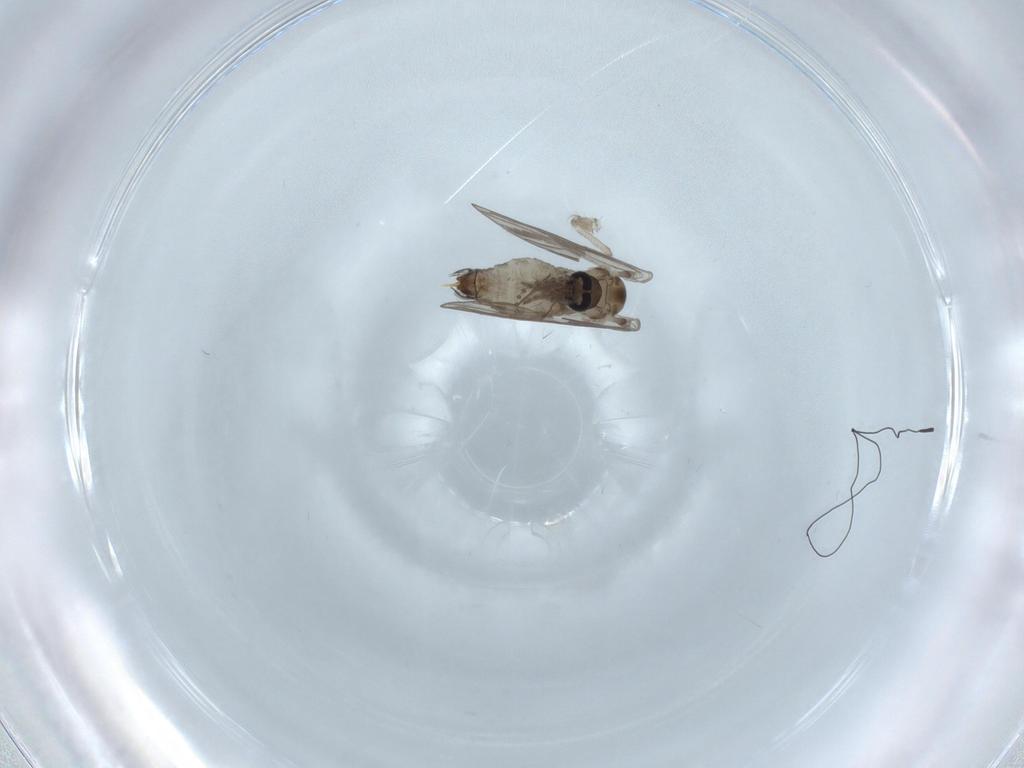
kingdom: Animalia
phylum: Arthropoda
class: Insecta
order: Diptera
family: Psychodidae
